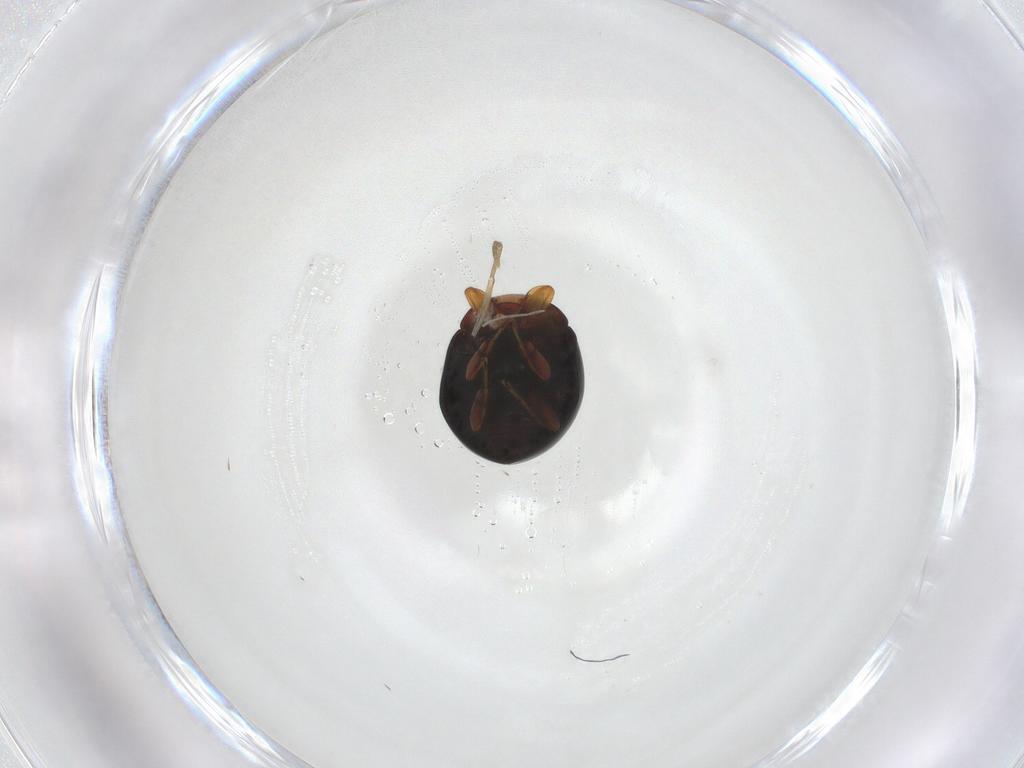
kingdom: Animalia
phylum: Arthropoda
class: Insecta
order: Coleoptera
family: Coccinellidae
